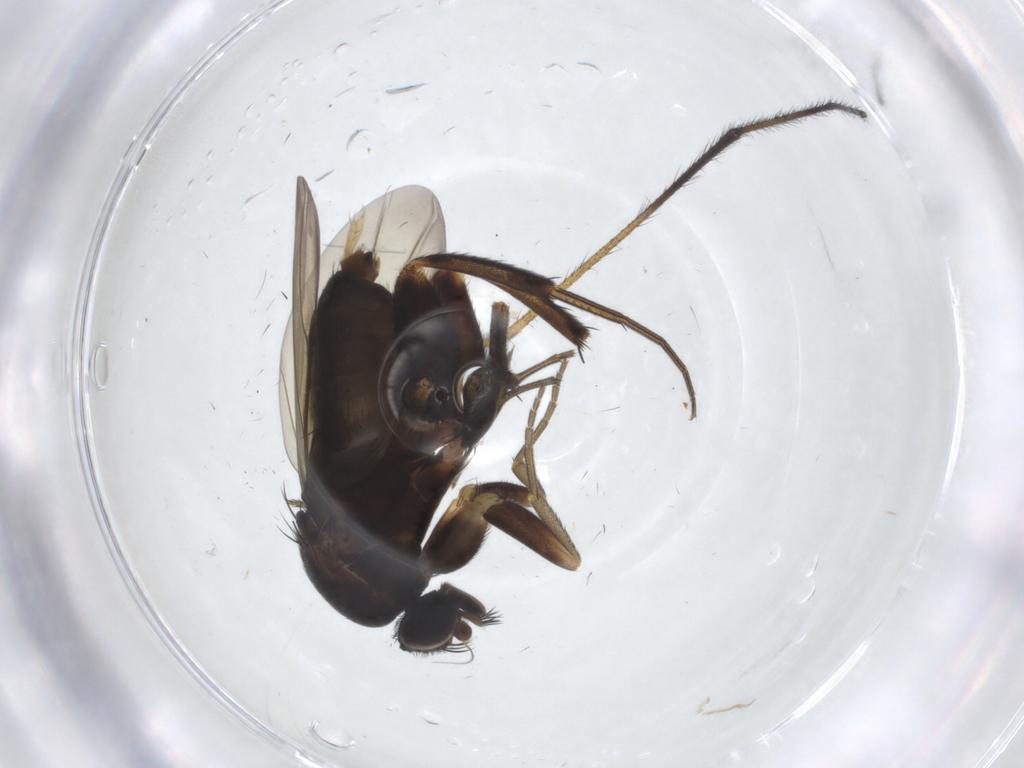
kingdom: Animalia
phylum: Arthropoda
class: Insecta
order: Diptera
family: Phoridae
